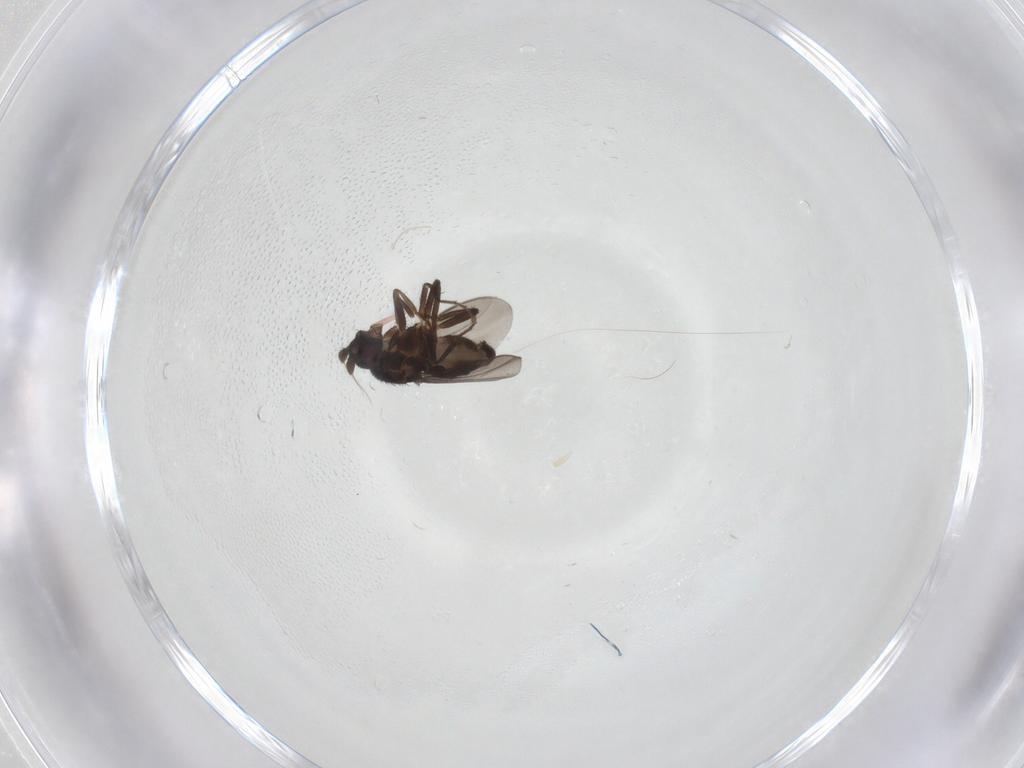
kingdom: Animalia
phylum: Arthropoda
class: Insecta
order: Diptera
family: Sphaeroceridae
